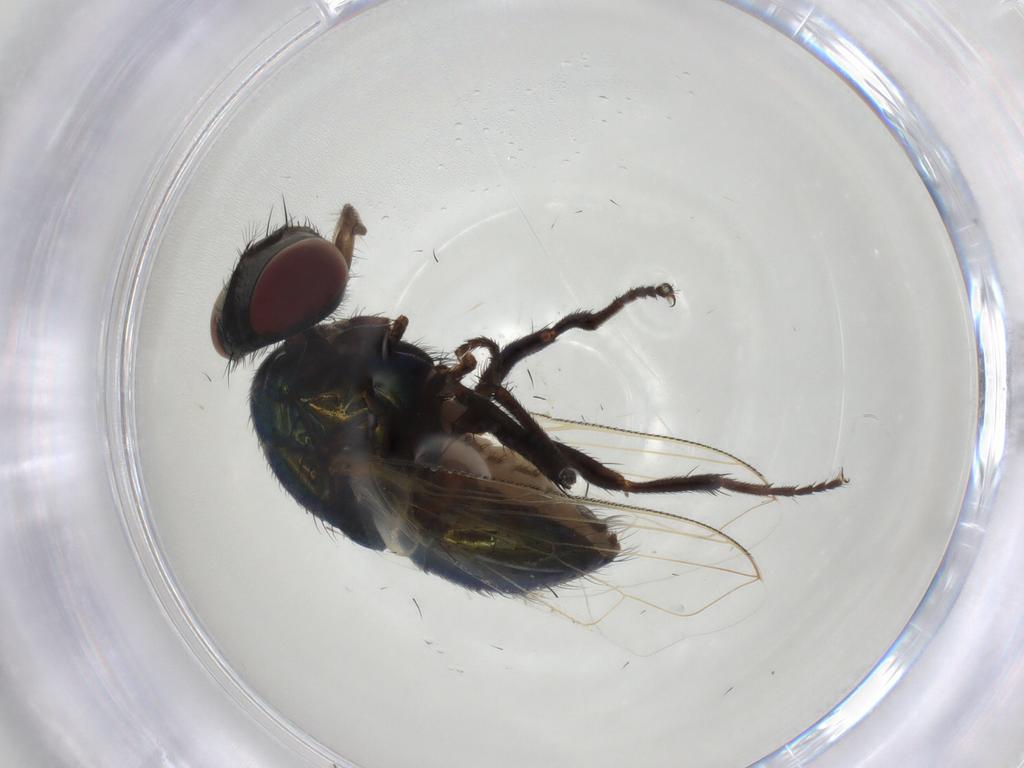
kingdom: Animalia
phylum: Arthropoda
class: Insecta
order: Diptera
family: Muscidae
